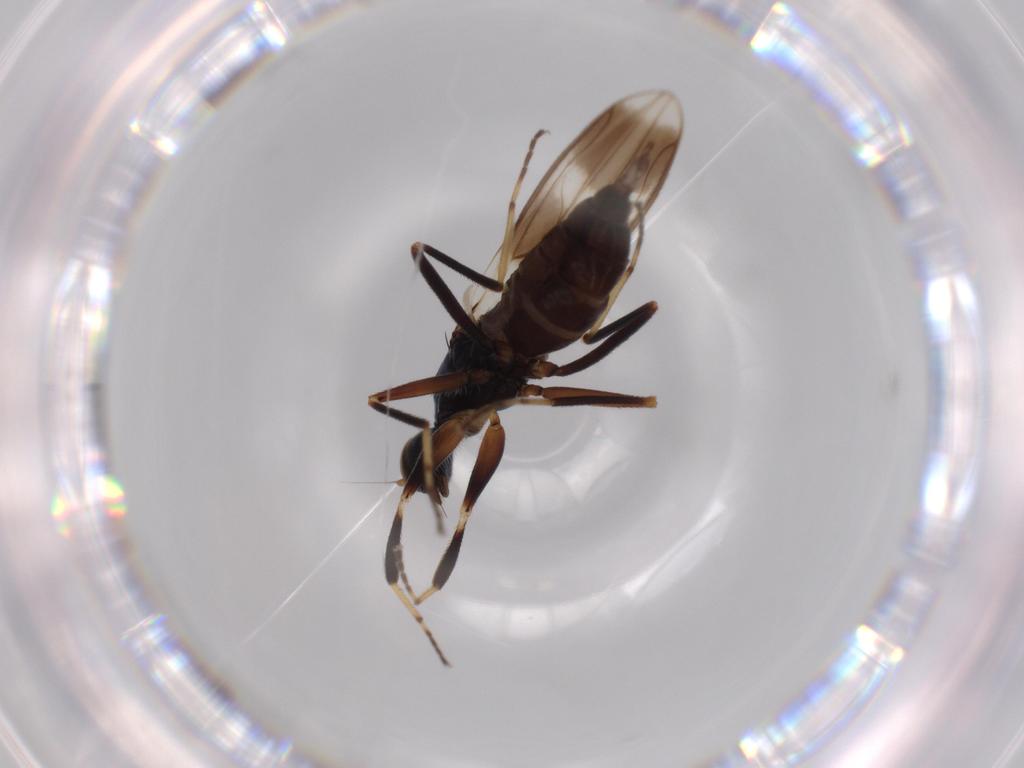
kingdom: Animalia
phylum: Arthropoda
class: Insecta
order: Diptera
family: Hybotidae
